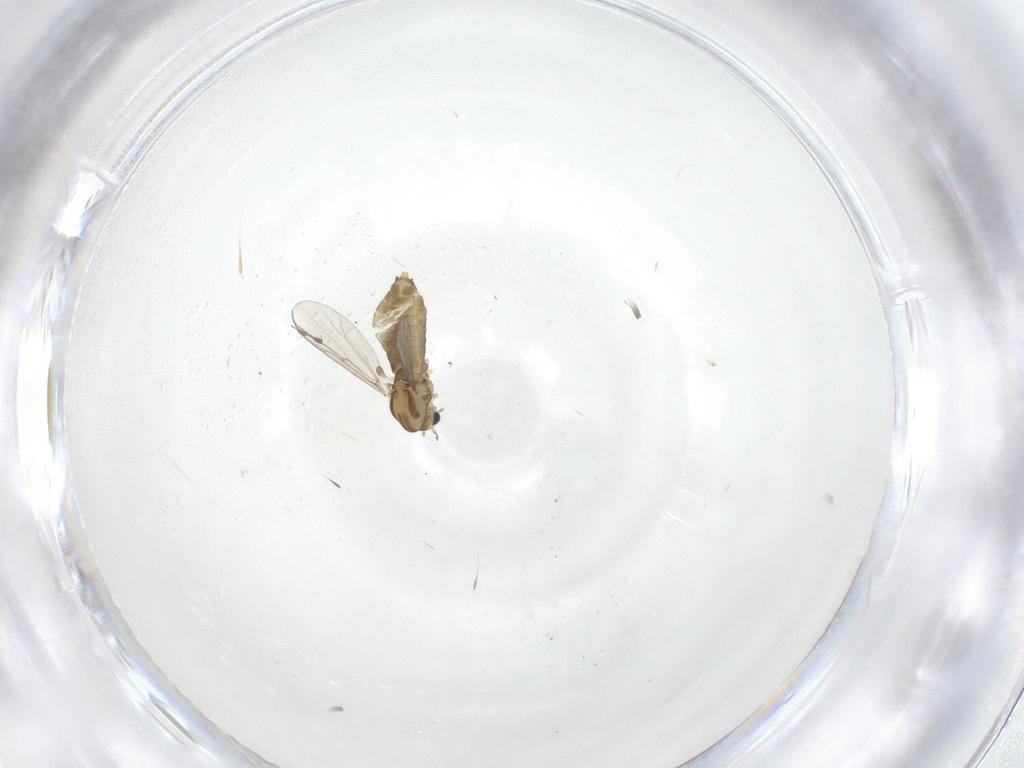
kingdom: Animalia
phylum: Arthropoda
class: Insecta
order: Diptera
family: Chironomidae
